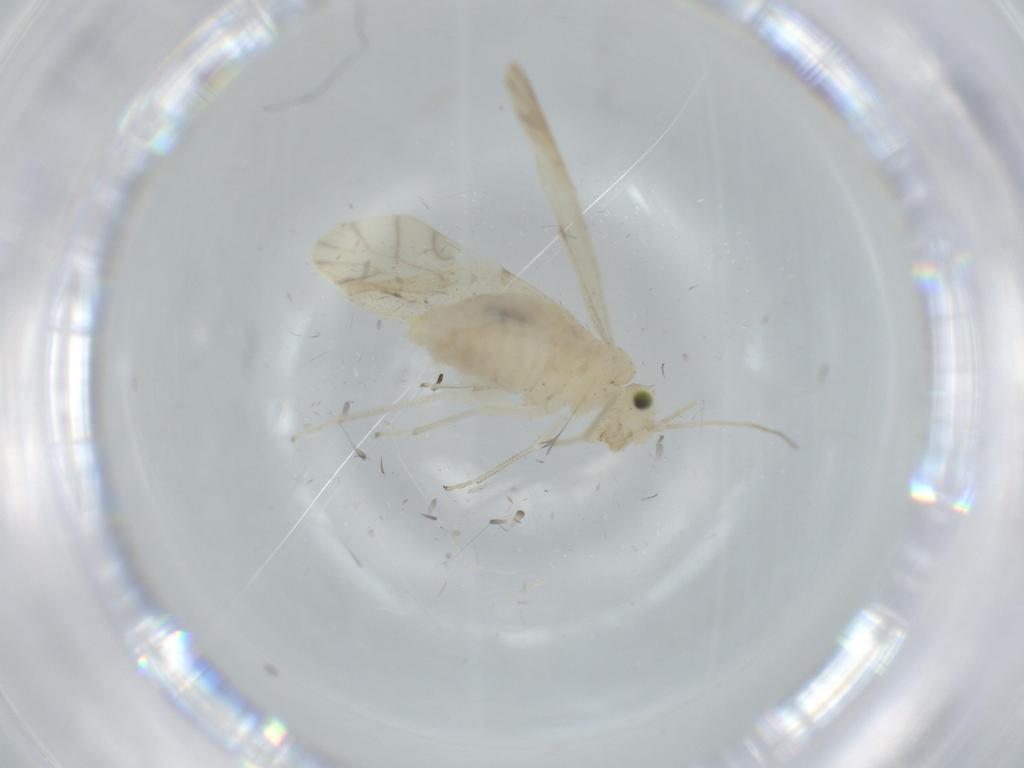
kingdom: Animalia
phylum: Arthropoda
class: Insecta
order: Psocodea
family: Caeciliusidae
